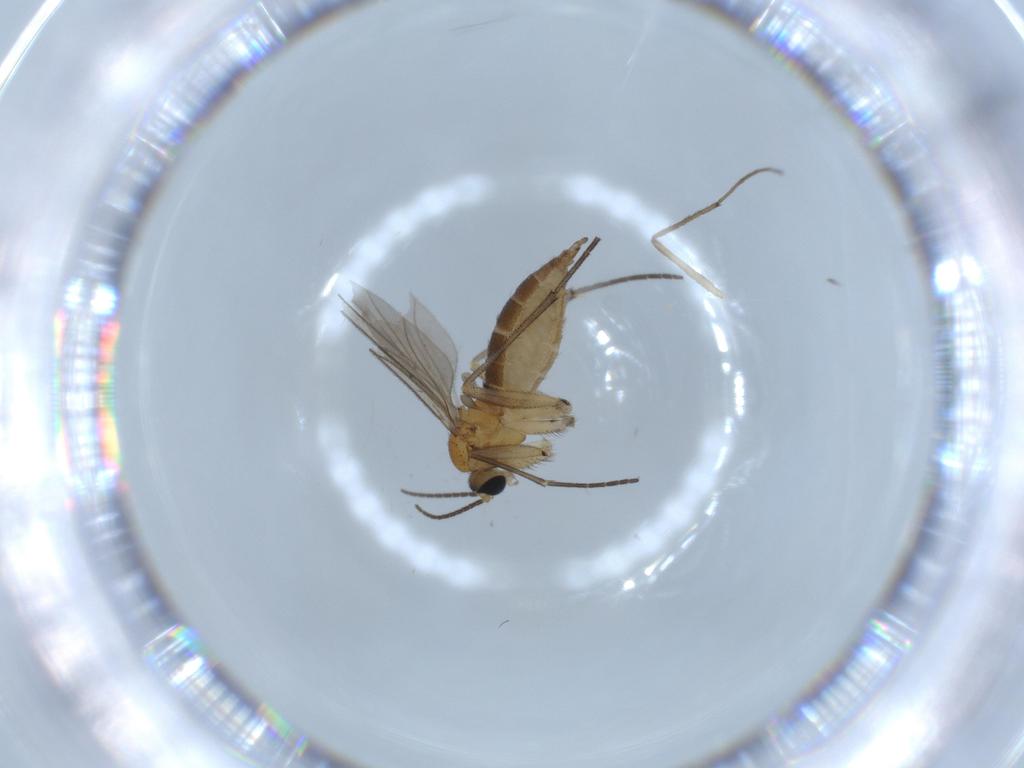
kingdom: Animalia
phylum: Arthropoda
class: Insecta
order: Diptera
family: Sciaridae
